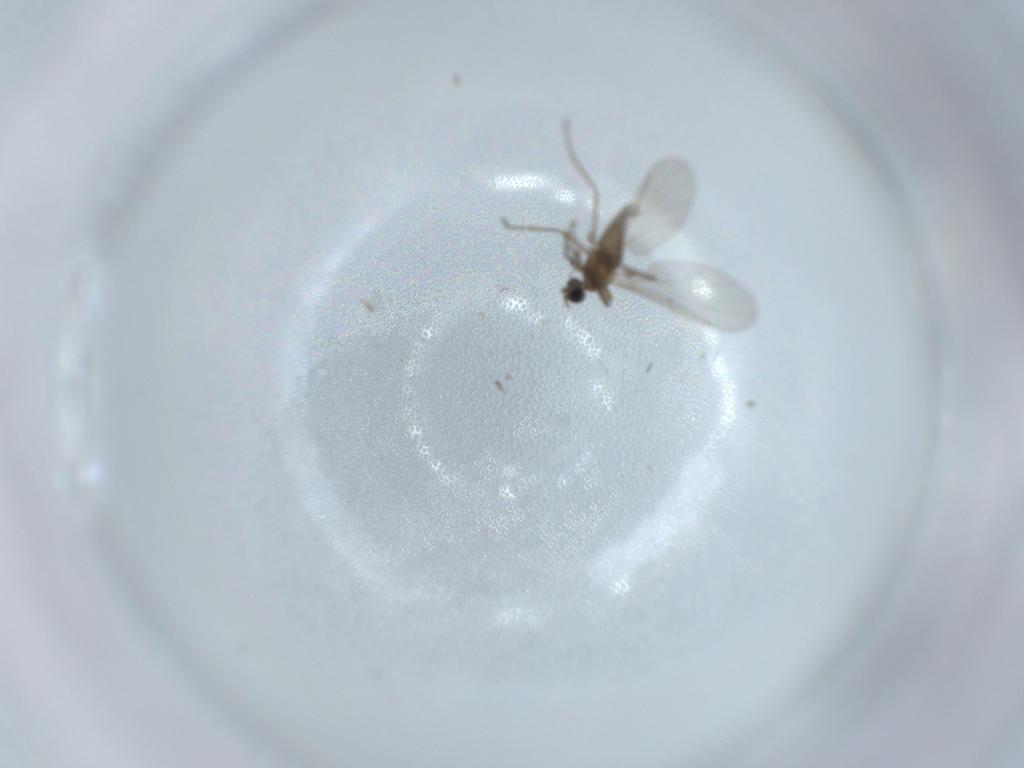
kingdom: Animalia
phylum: Arthropoda
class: Insecta
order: Diptera
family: Cecidomyiidae
